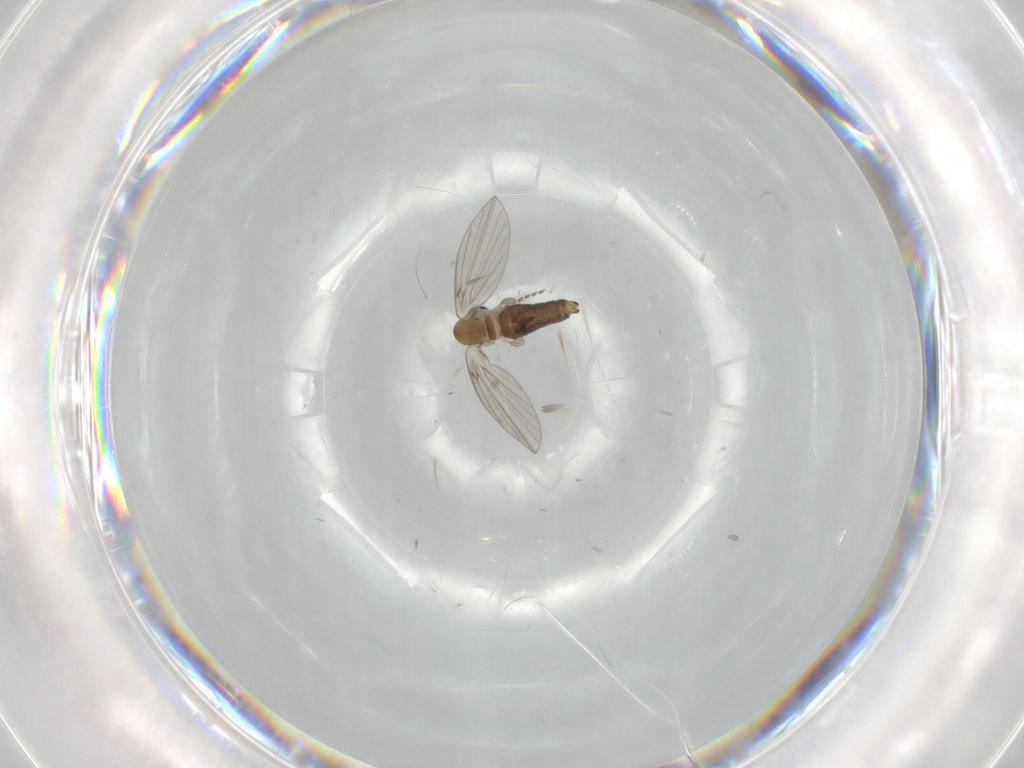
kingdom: Animalia
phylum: Arthropoda
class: Insecta
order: Diptera
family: Psychodidae
